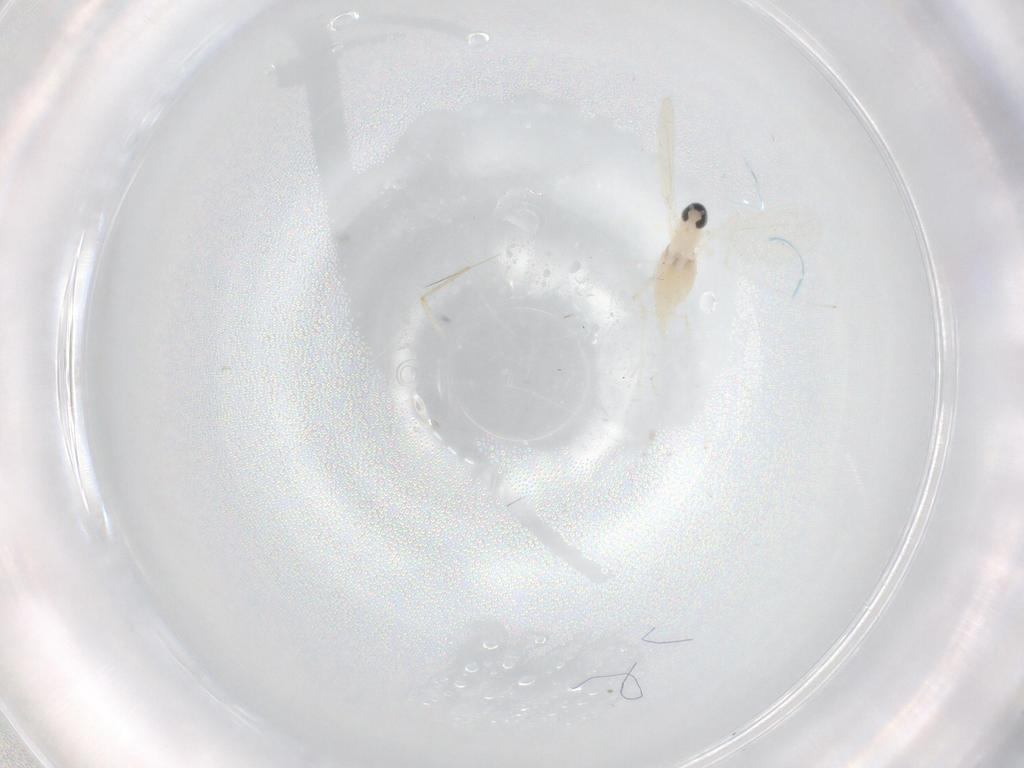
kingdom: Animalia
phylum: Arthropoda
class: Insecta
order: Diptera
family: Cecidomyiidae
